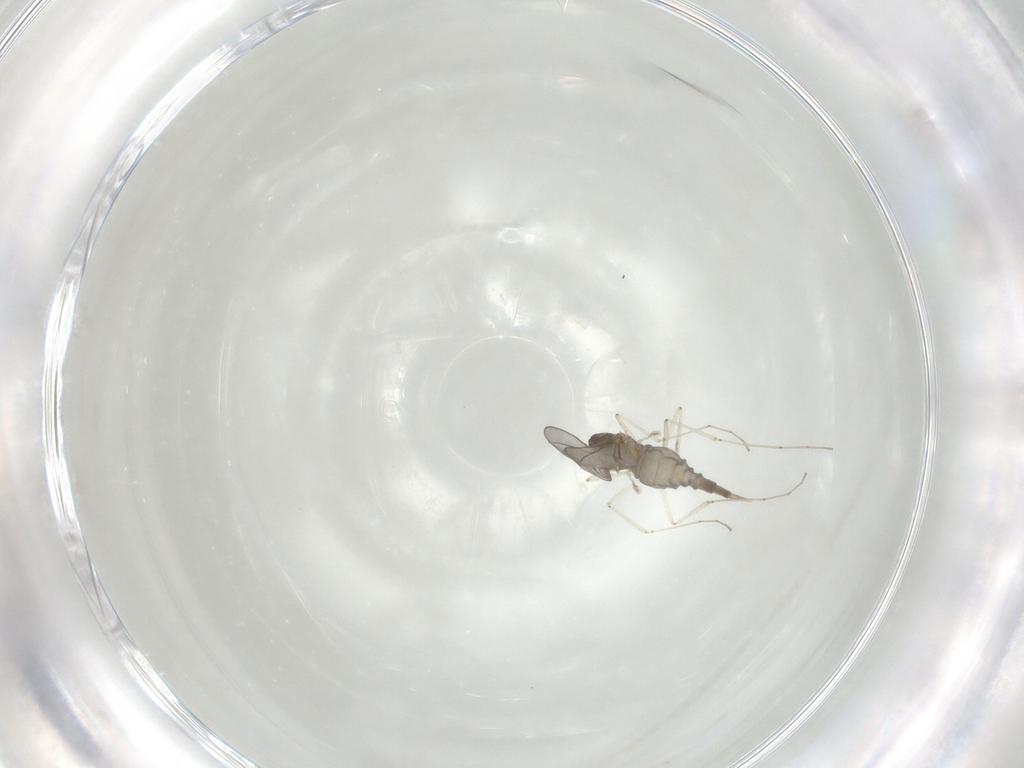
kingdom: Animalia
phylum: Arthropoda
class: Insecta
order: Diptera
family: Cecidomyiidae
